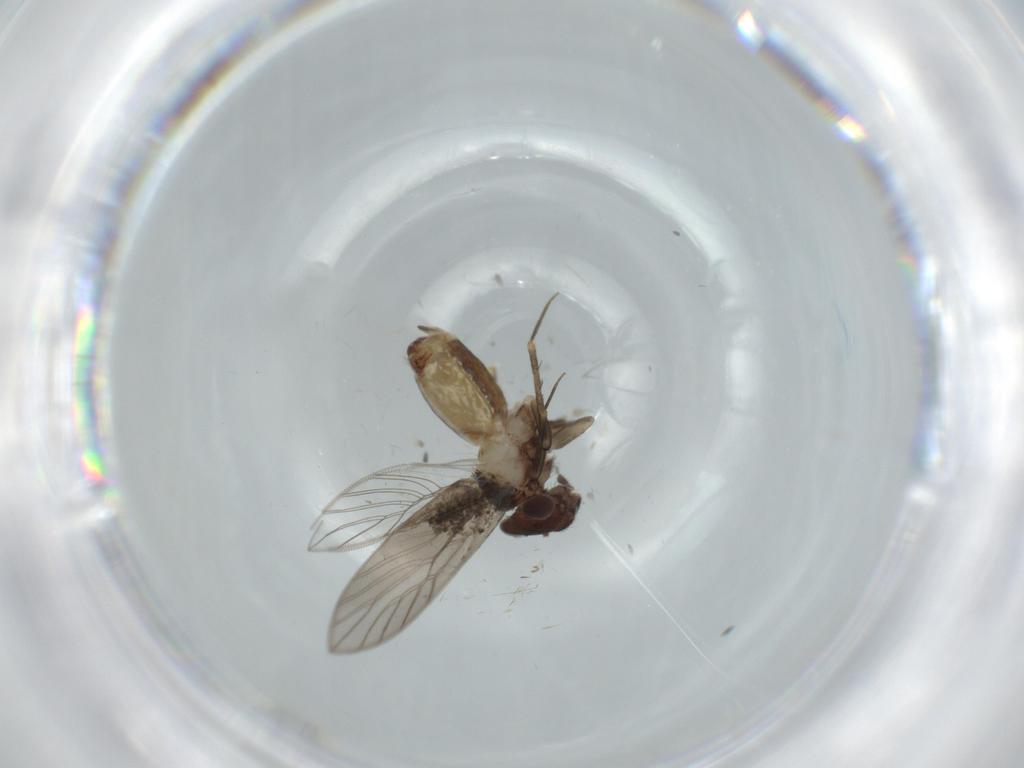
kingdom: Animalia
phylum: Arthropoda
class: Insecta
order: Psocodea
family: Lepidopsocidae
